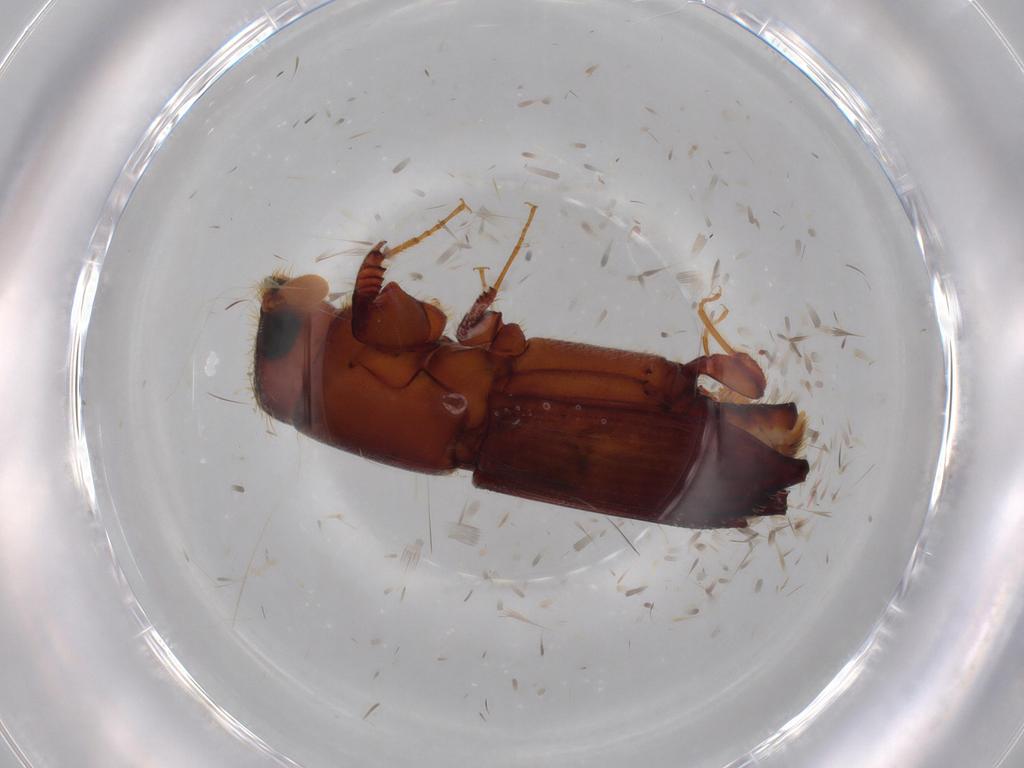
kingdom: Animalia
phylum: Arthropoda
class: Insecta
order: Coleoptera
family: Curculionidae
